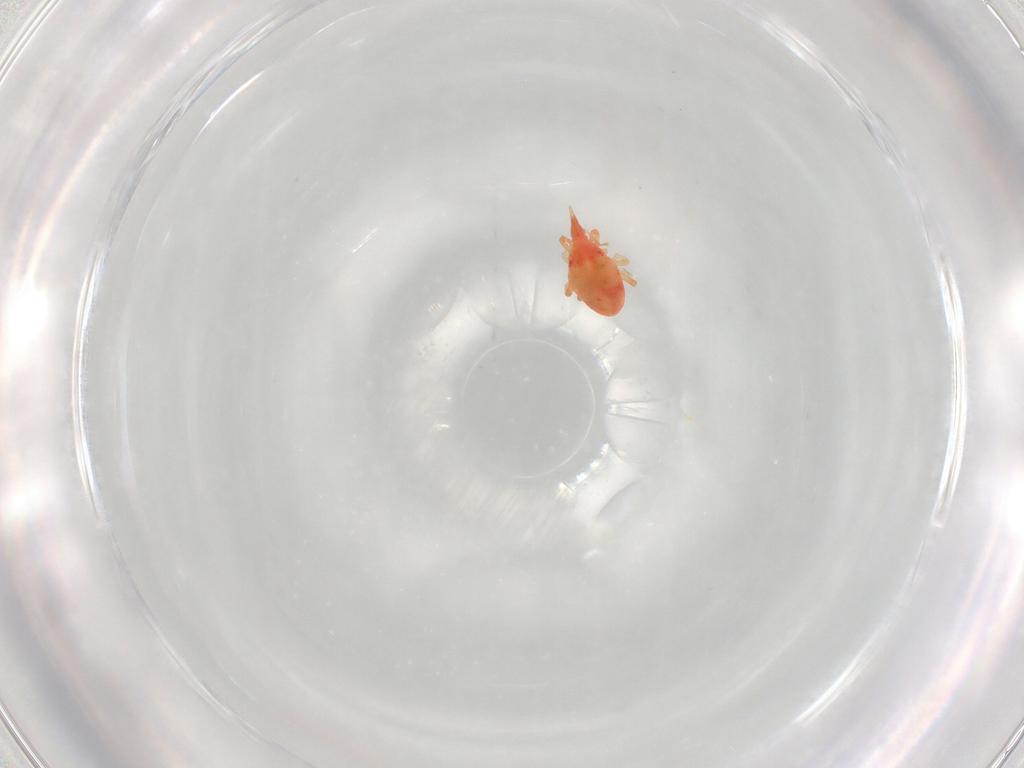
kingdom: Animalia
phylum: Arthropoda
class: Arachnida
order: Trombidiformes
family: Bdellidae
